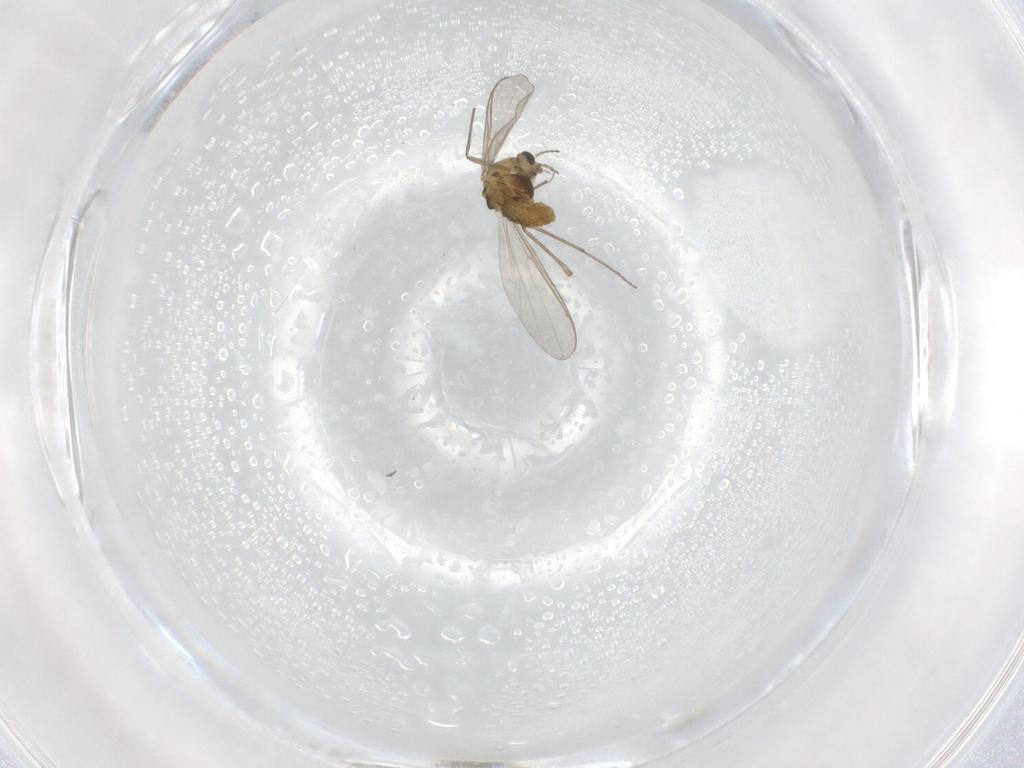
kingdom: Animalia
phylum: Arthropoda
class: Insecta
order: Diptera
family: Chironomidae
